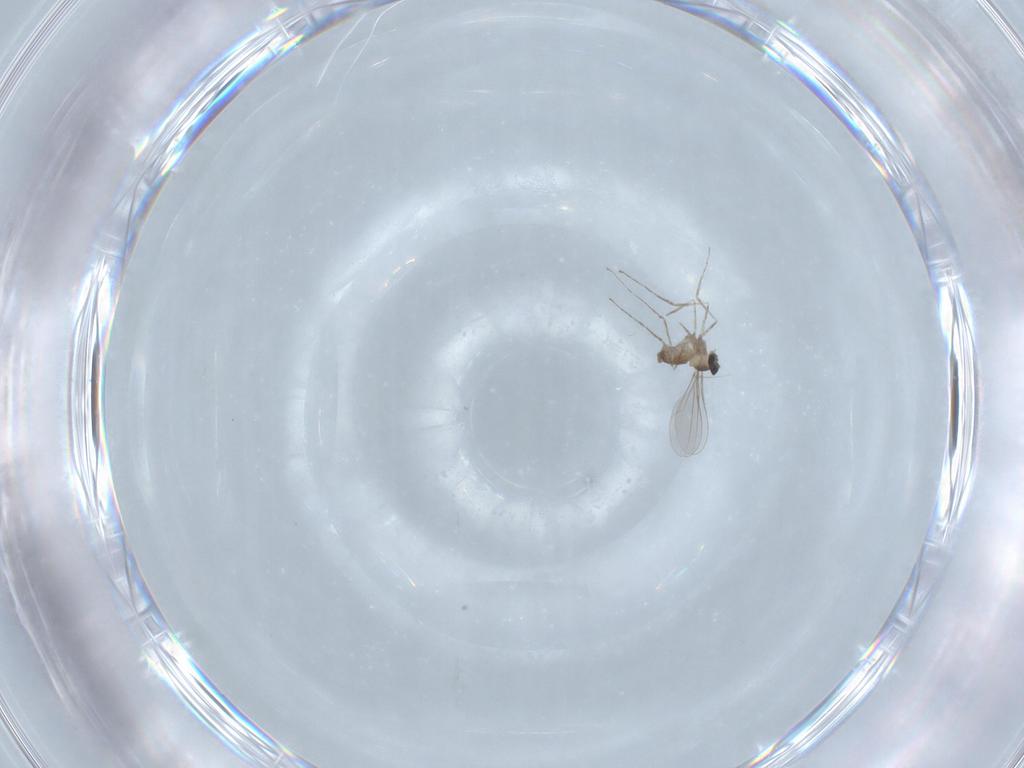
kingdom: Animalia
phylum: Arthropoda
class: Insecta
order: Diptera
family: Cecidomyiidae
